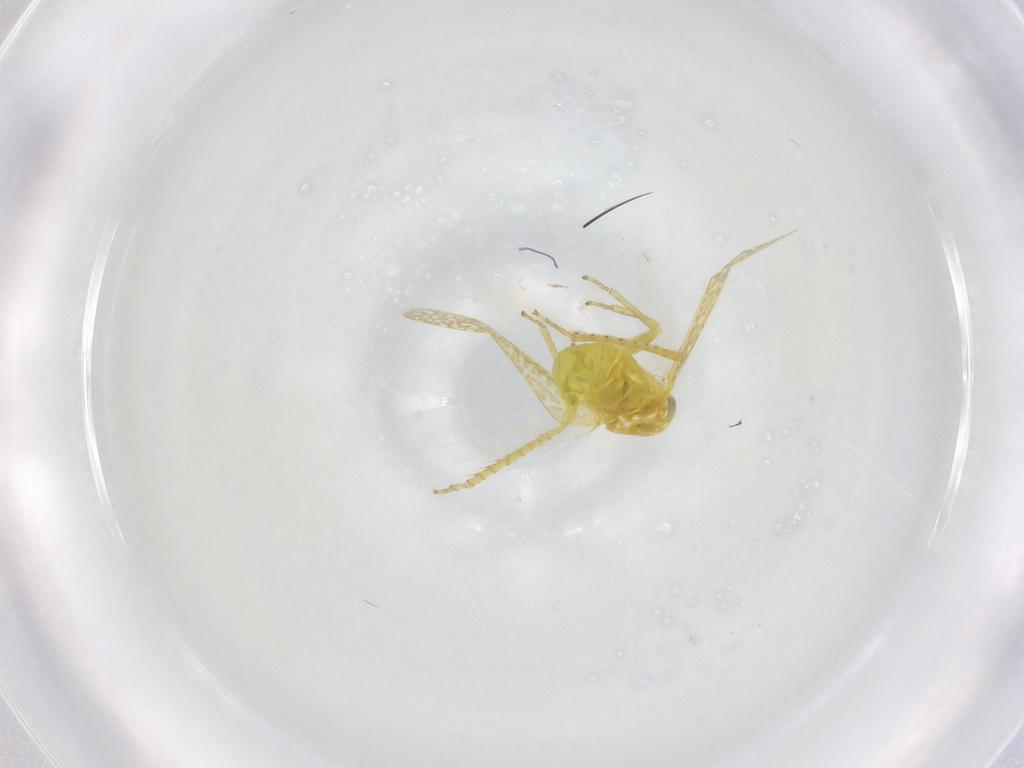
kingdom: Animalia
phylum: Arthropoda
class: Insecta
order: Hemiptera
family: Cicadellidae
